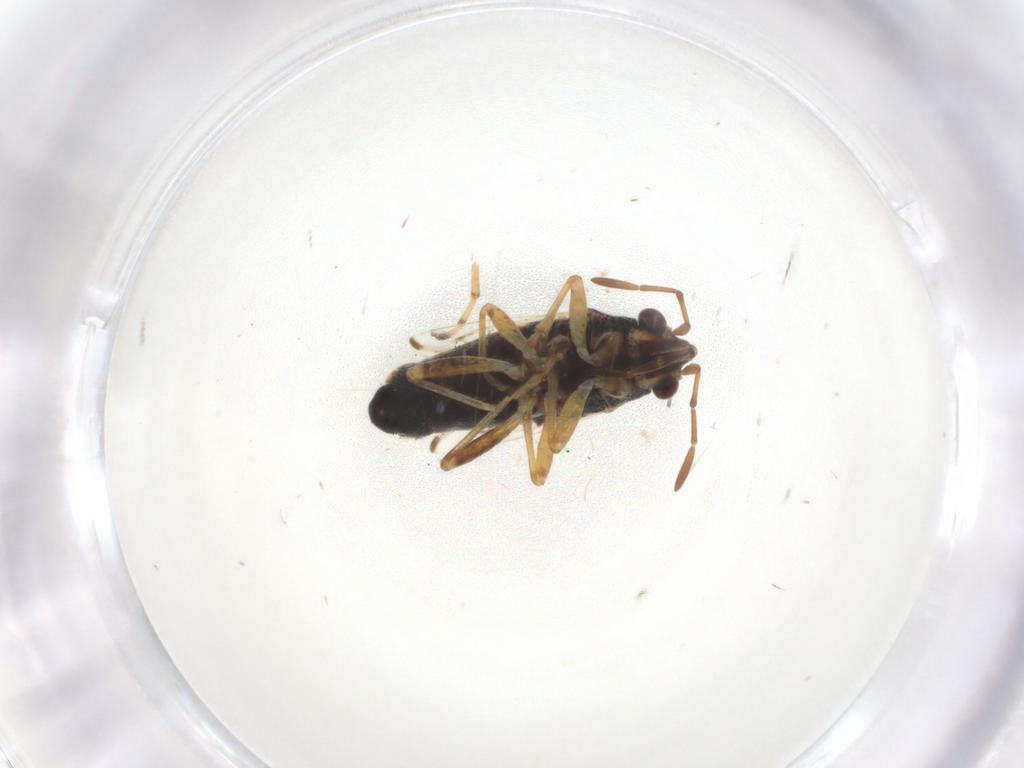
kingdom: Animalia
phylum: Arthropoda
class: Insecta
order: Hemiptera
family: Lygaeidae
